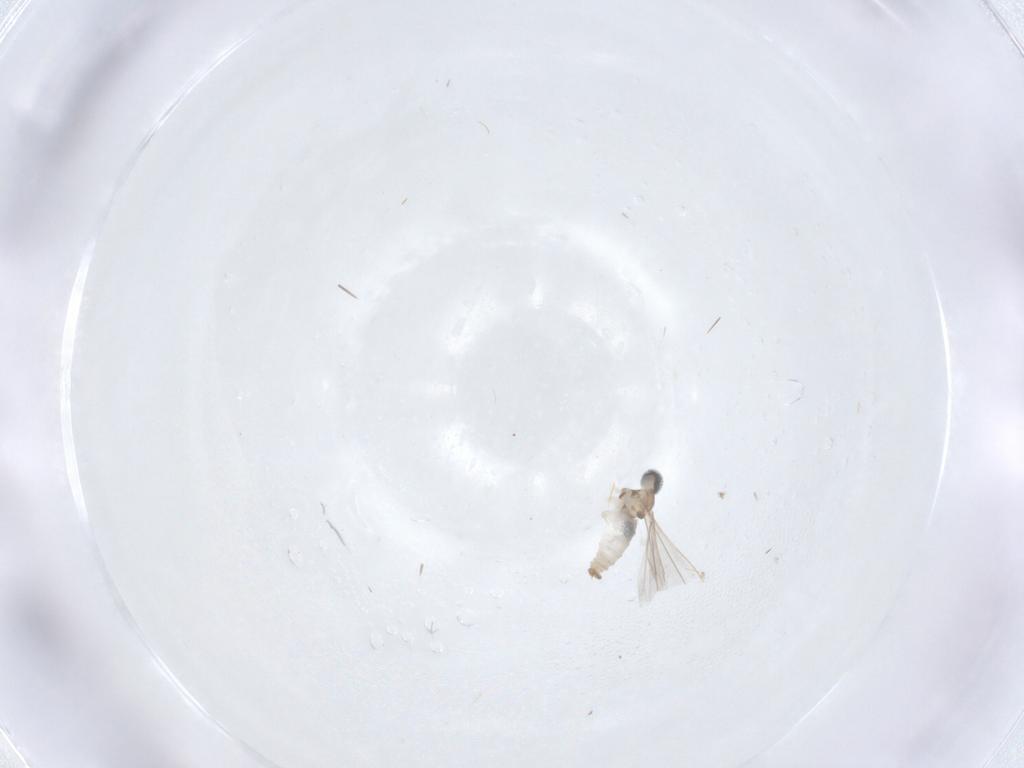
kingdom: Animalia
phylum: Arthropoda
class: Insecta
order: Diptera
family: Cecidomyiidae
